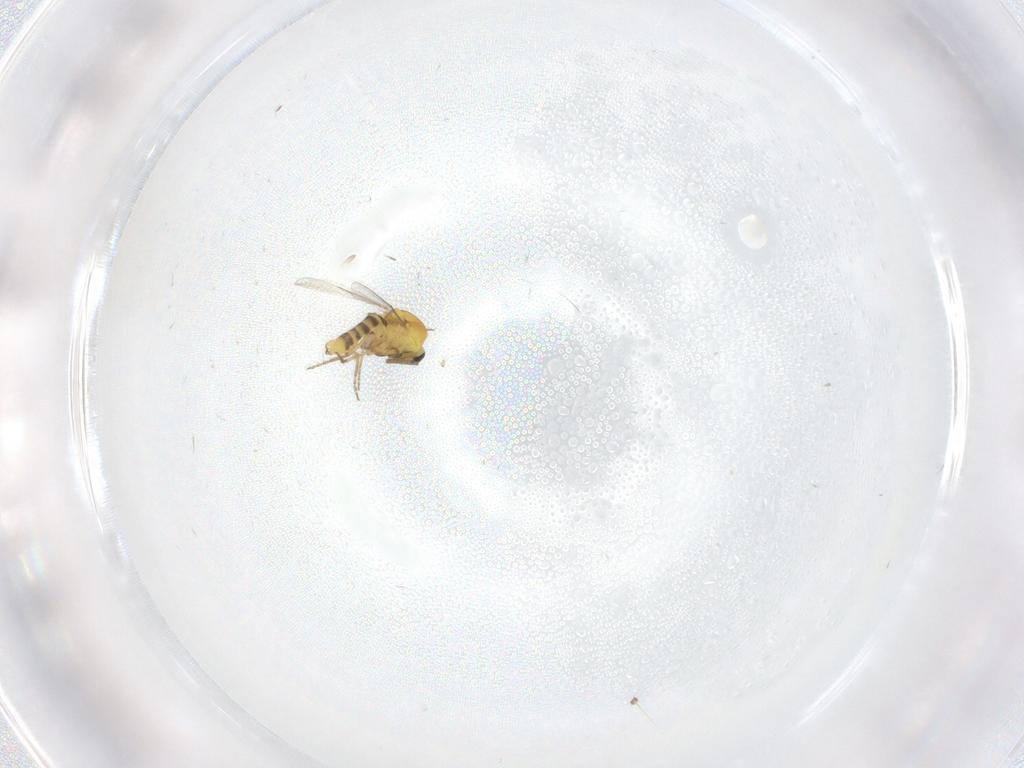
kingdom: Animalia
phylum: Arthropoda
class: Insecta
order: Diptera
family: Ceratopogonidae
